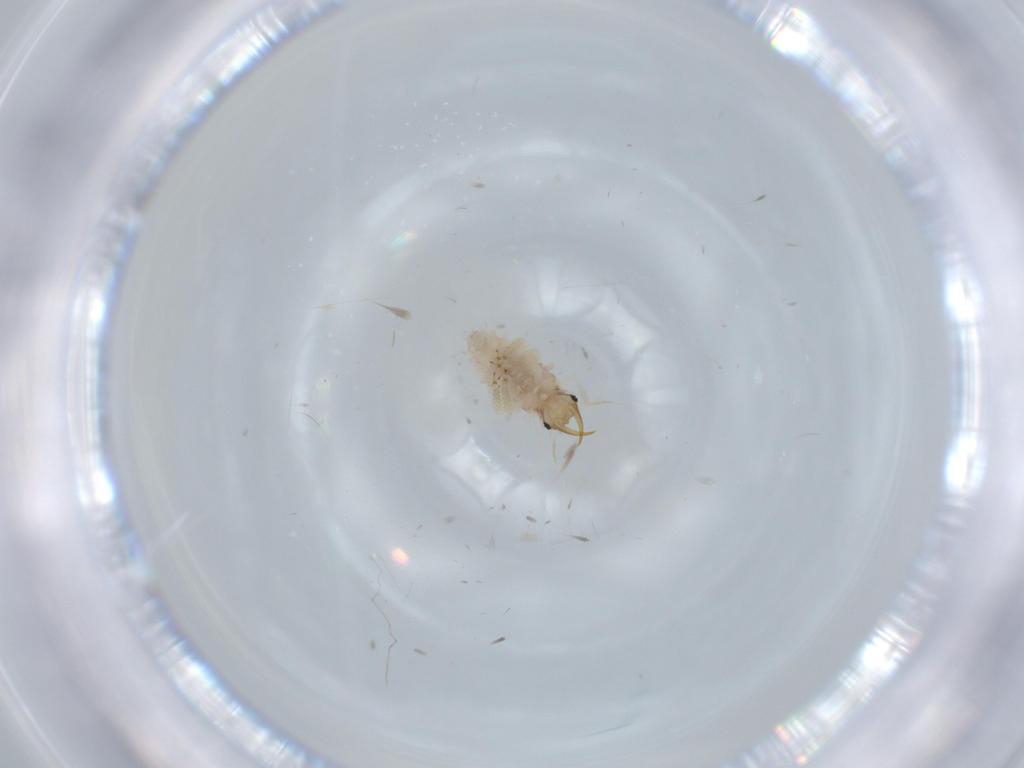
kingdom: Animalia
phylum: Arthropoda
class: Insecta
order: Neuroptera
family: Chrysopidae
